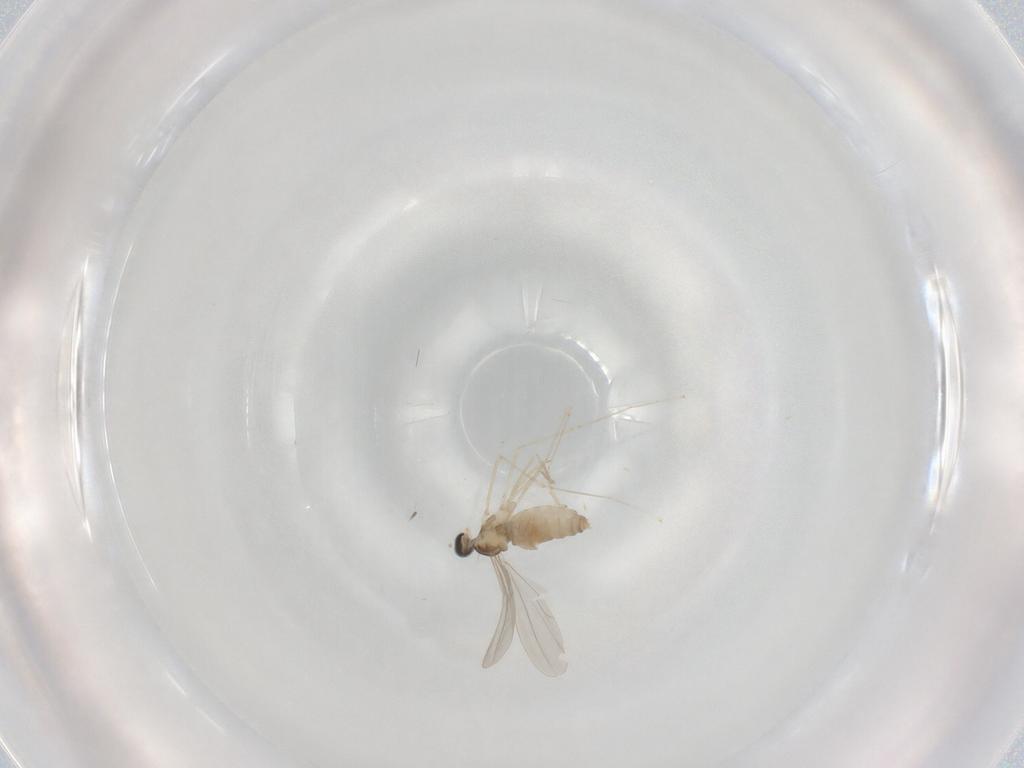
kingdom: Animalia
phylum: Arthropoda
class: Insecta
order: Diptera
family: Cecidomyiidae
